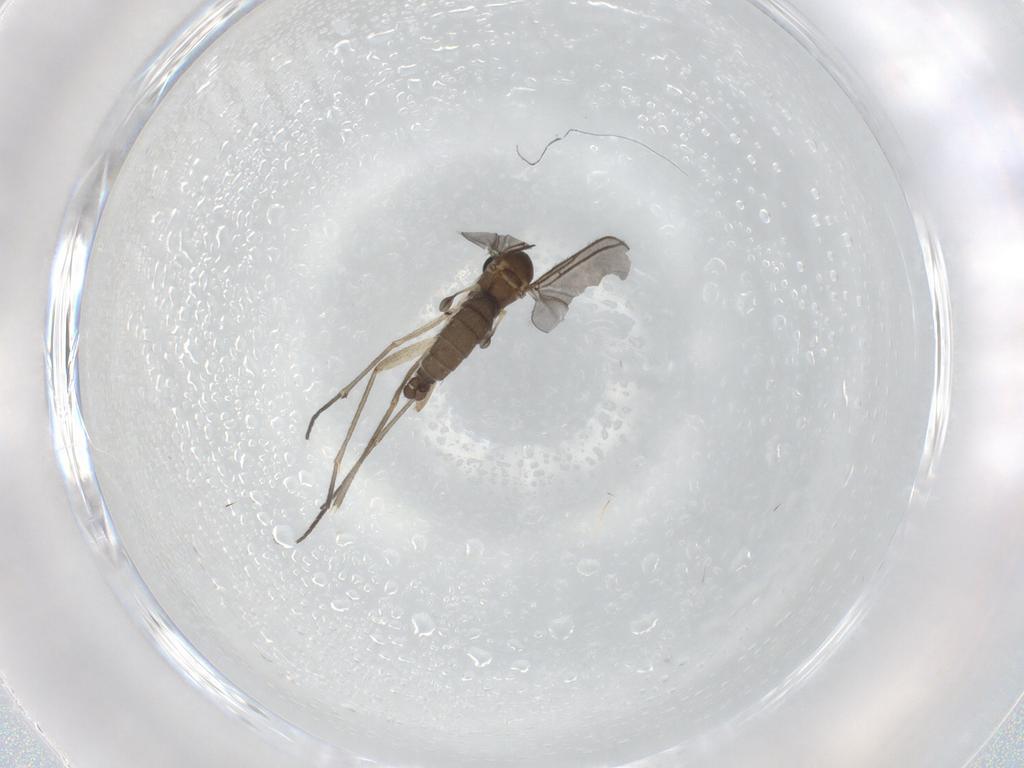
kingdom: Animalia
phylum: Arthropoda
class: Insecta
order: Diptera
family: Sciaridae
